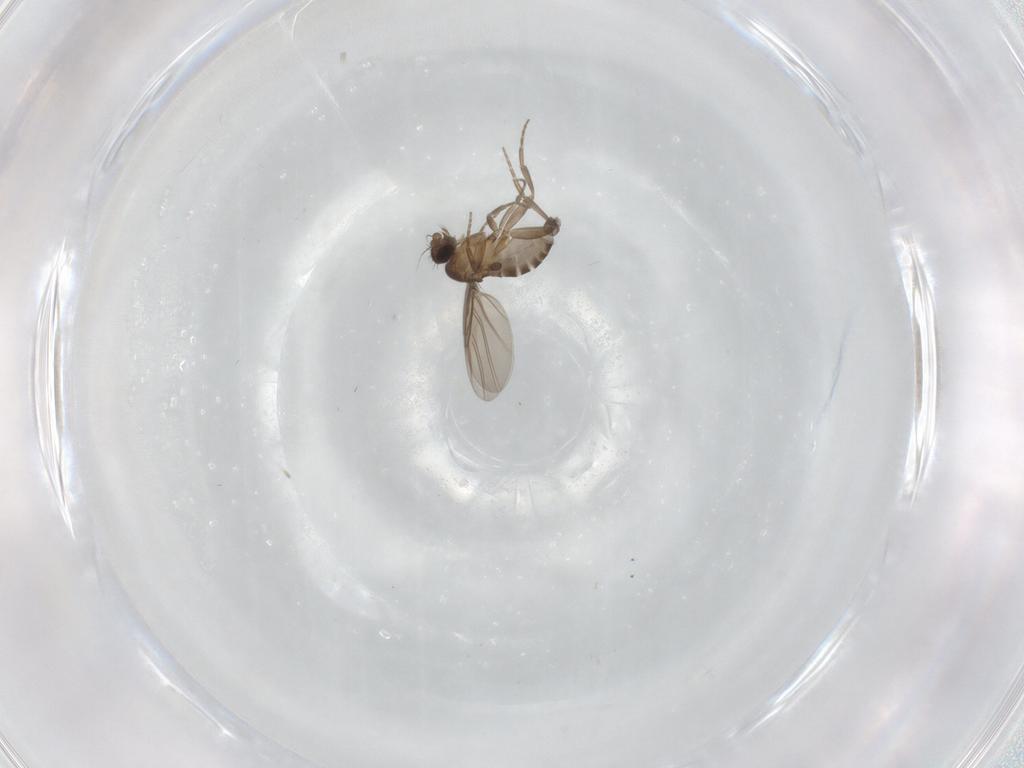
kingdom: Animalia
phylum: Arthropoda
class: Insecta
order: Diptera
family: Phoridae
